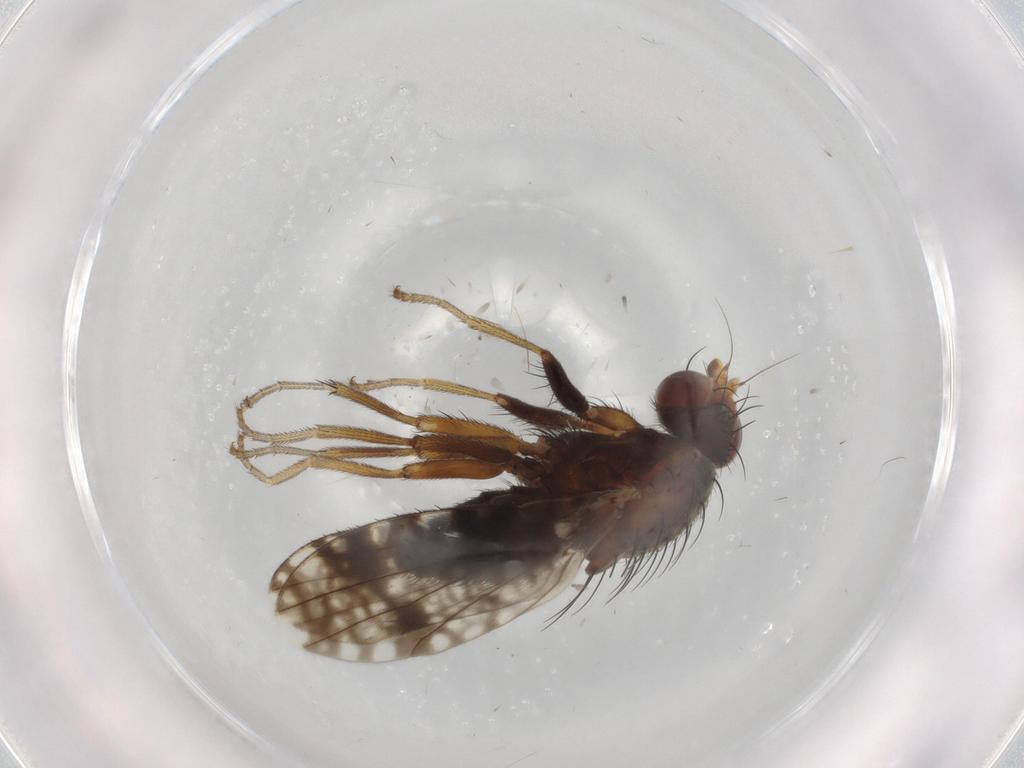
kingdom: Animalia
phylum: Arthropoda
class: Insecta
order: Diptera
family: Tephritidae
